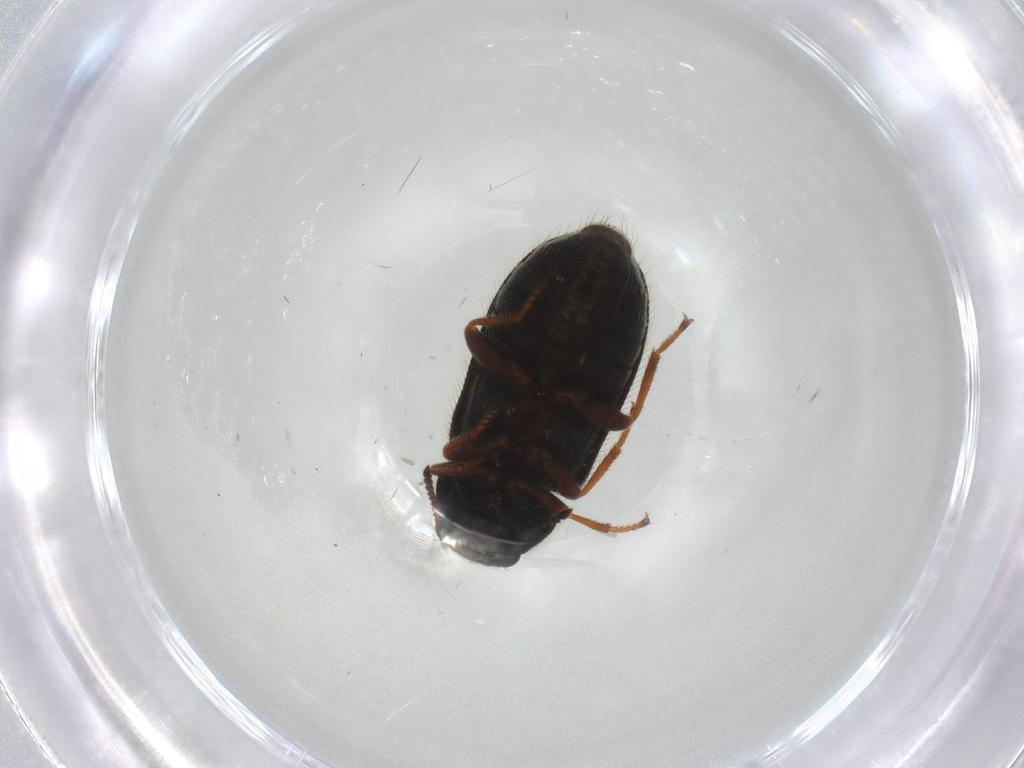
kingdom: Animalia
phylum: Arthropoda
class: Insecta
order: Coleoptera
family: Melyridae
